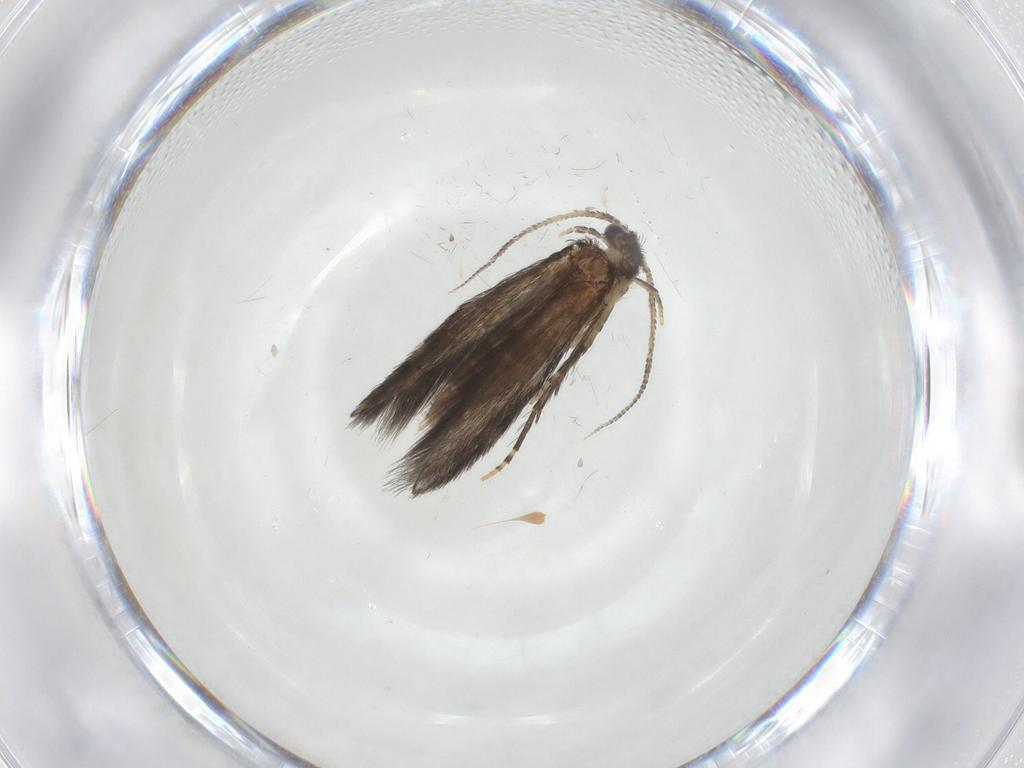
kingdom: Animalia
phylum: Arthropoda
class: Insecta
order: Trichoptera
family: Hydroptilidae
